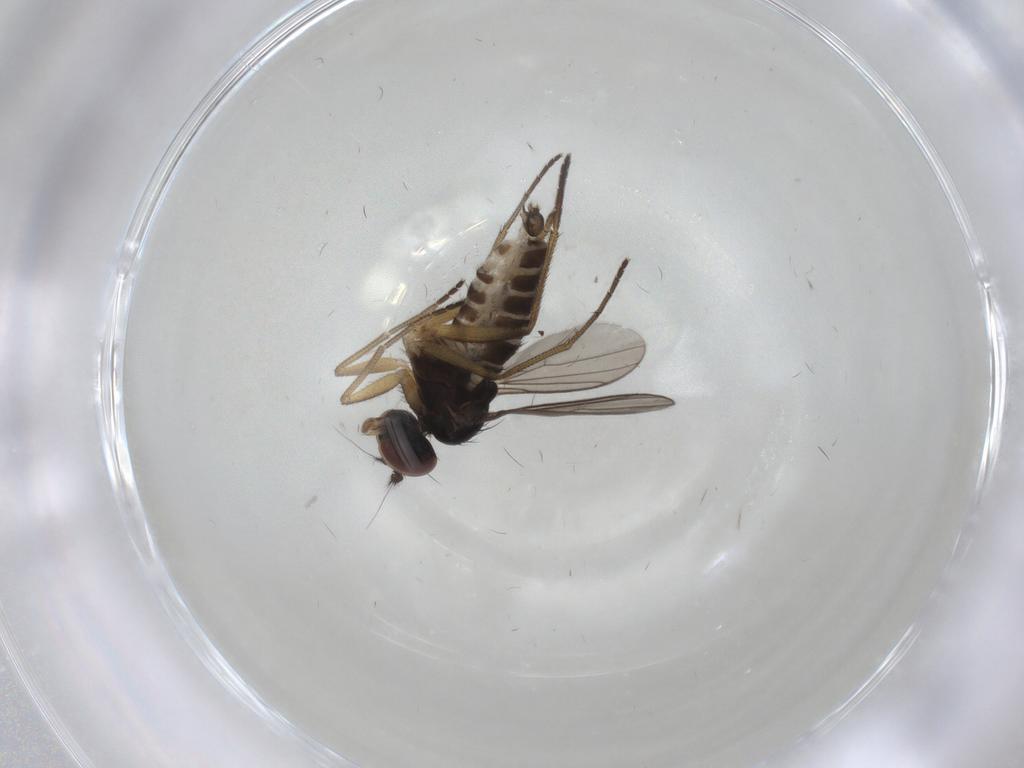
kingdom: Animalia
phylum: Arthropoda
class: Insecta
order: Diptera
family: Dolichopodidae
